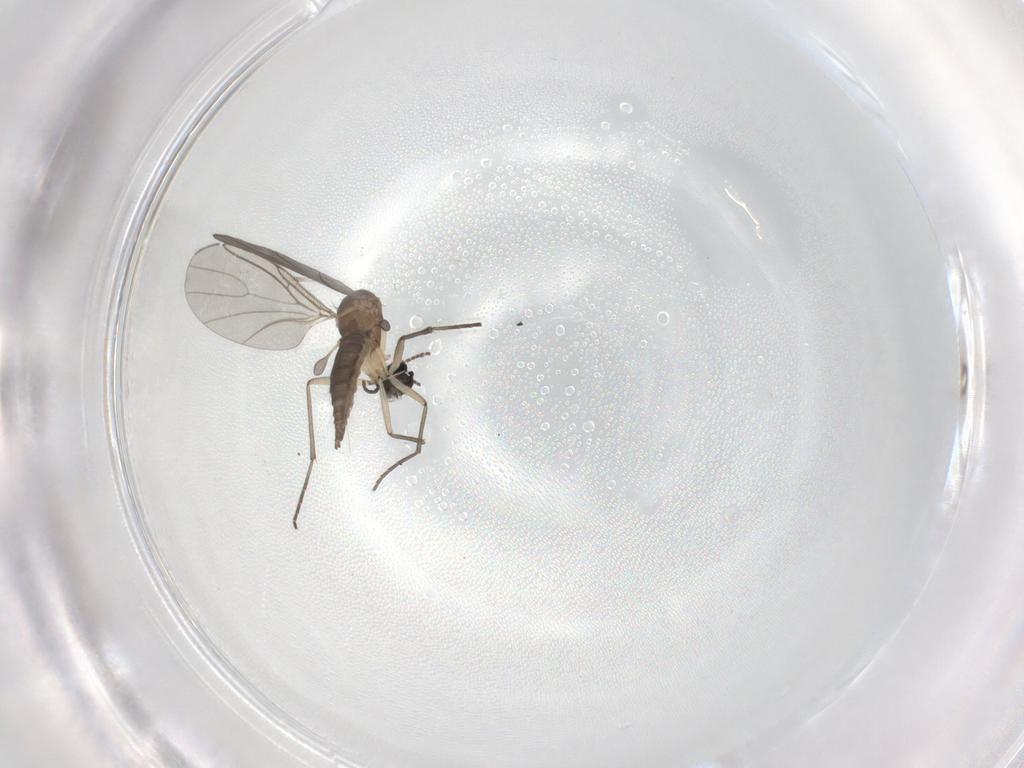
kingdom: Animalia
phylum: Arthropoda
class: Insecta
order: Diptera
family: Sciaridae
